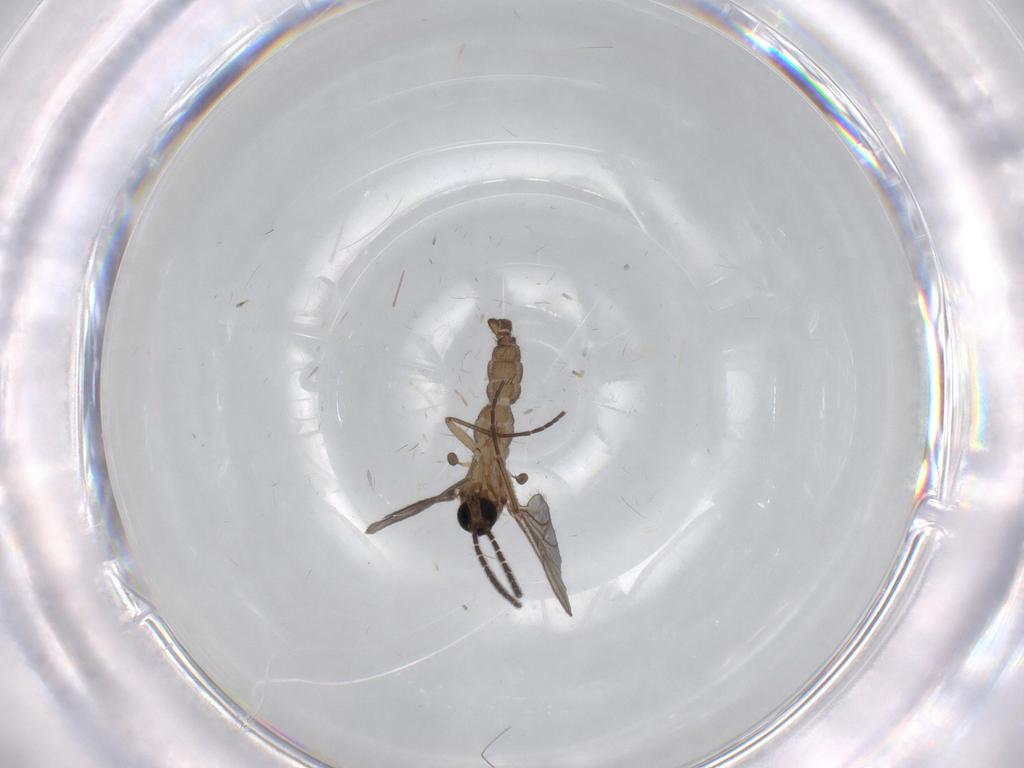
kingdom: Animalia
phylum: Arthropoda
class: Insecta
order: Diptera
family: Sciaridae
